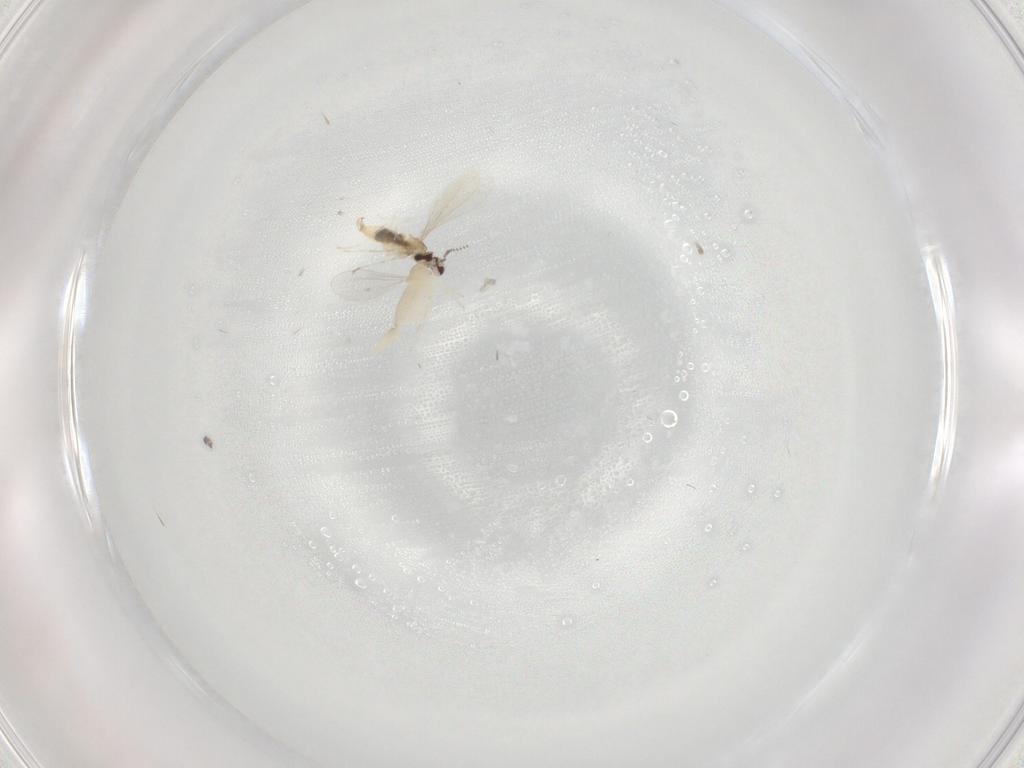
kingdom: Animalia
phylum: Arthropoda
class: Insecta
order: Diptera
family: Cecidomyiidae
